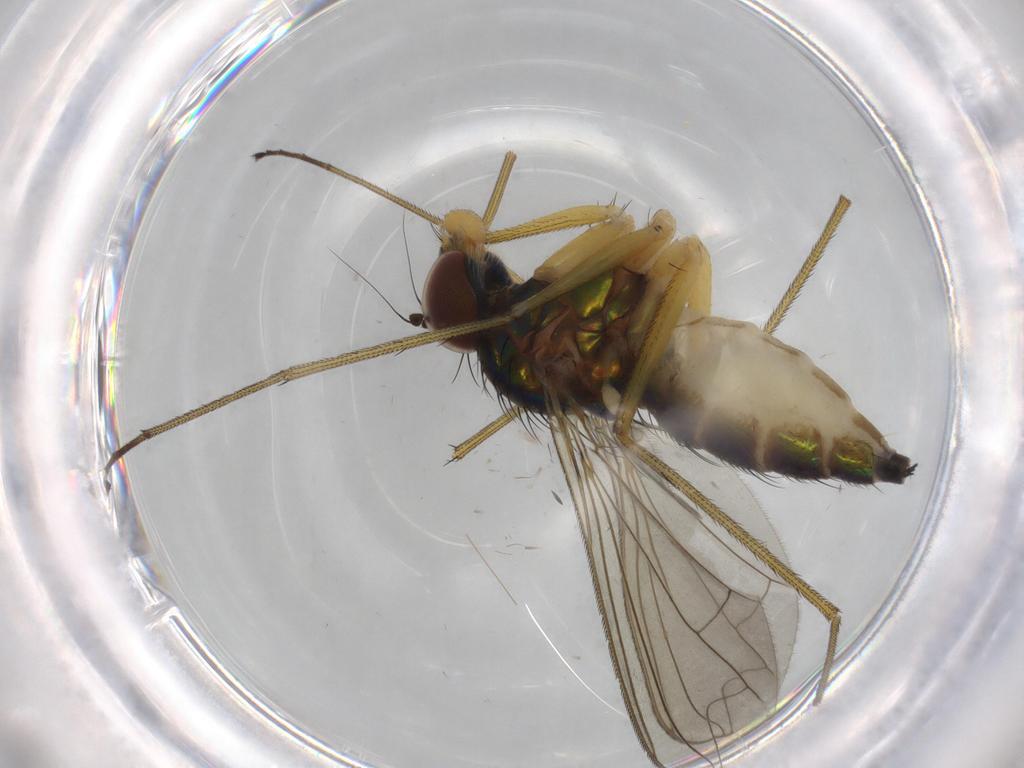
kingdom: Animalia
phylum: Arthropoda
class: Insecta
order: Diptera
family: Dolichopodidae
